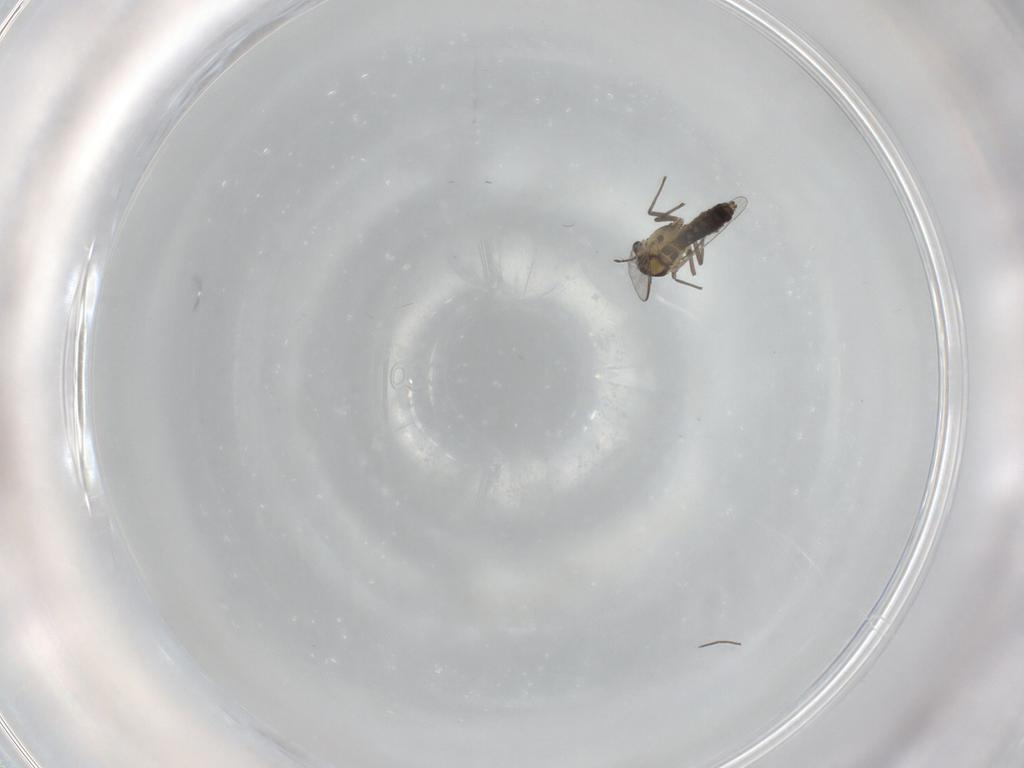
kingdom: Animalia
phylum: Arthropoda
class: Insecta
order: Diptera
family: Chironomidae
